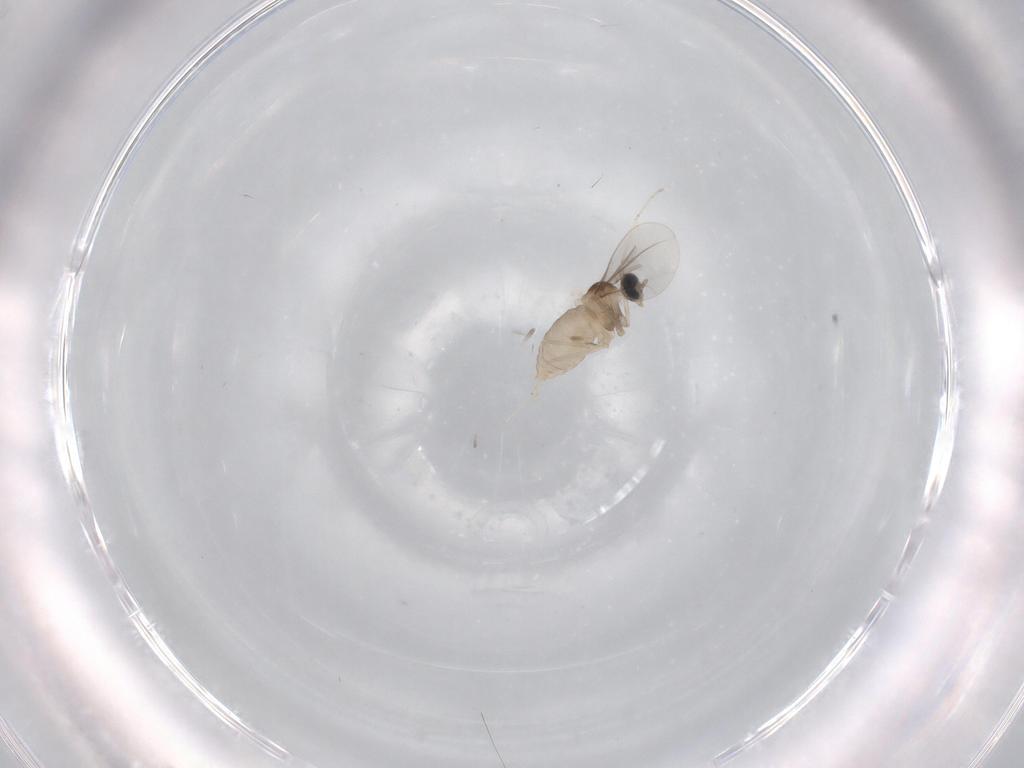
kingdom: Animalia
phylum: Arthropoda
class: Insecta
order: Diptera
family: Cecidomyiidae
